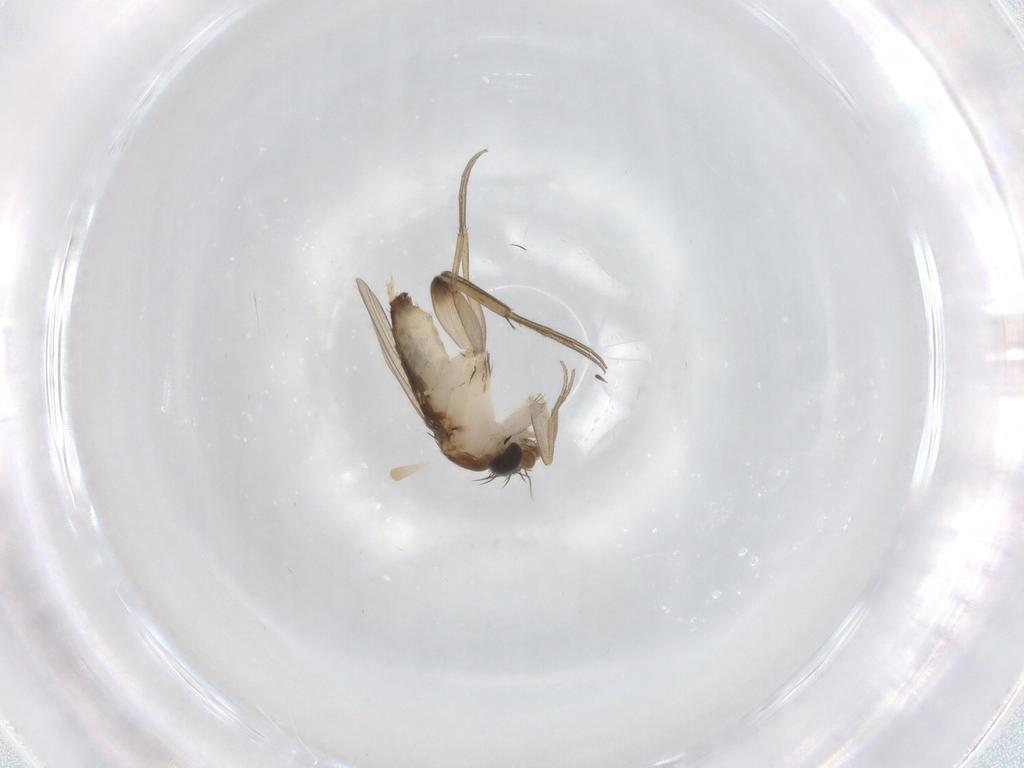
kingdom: Animalia
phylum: Arthropoda
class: Insecta
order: Diptera
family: Phoridae
